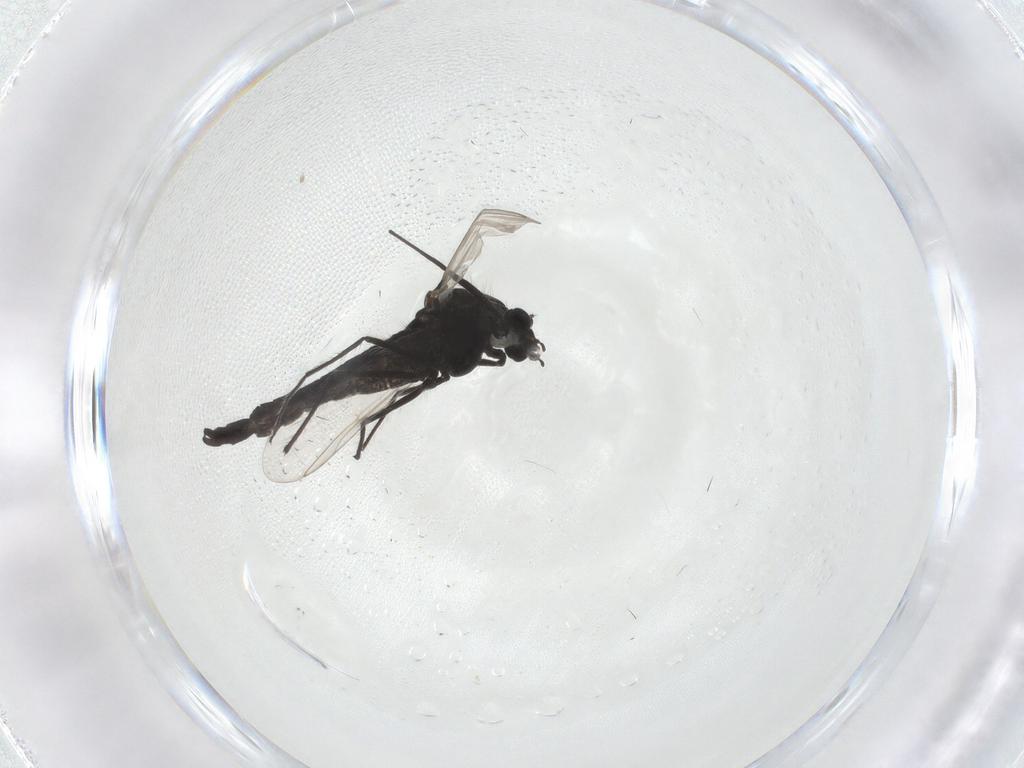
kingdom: Animalia
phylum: Arthropoda
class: Insecta
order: Diptera
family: Chironomidae
